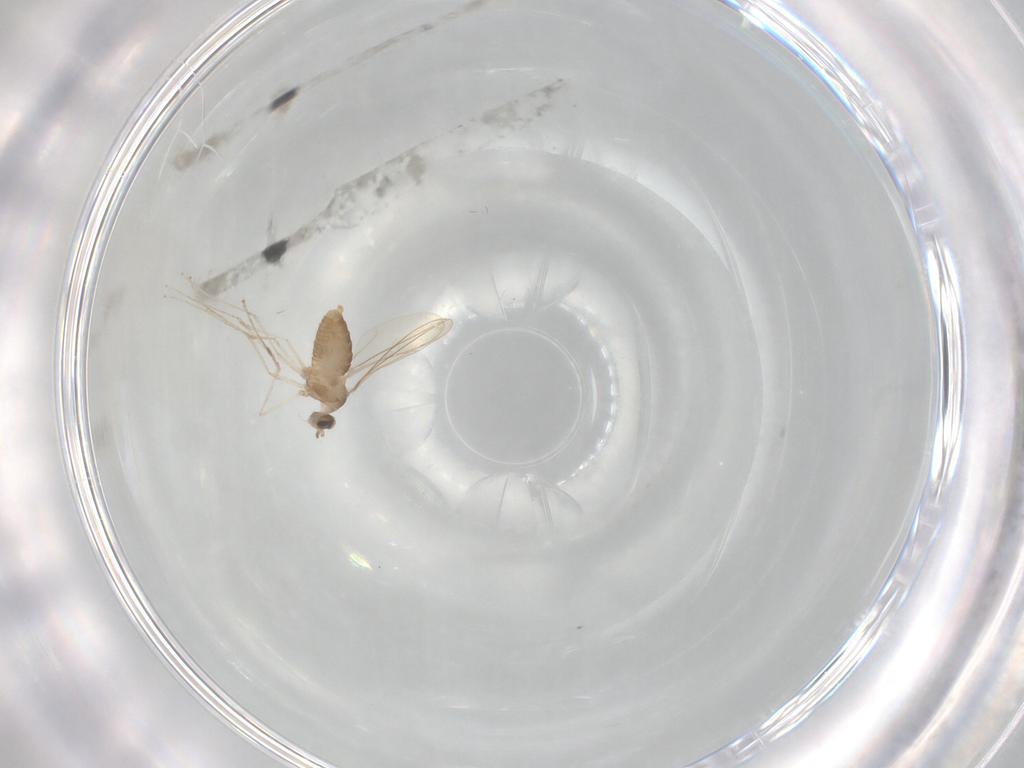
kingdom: Animalia
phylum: Arthropoda
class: Insecta
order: Diptera
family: Cecidomyiidae
